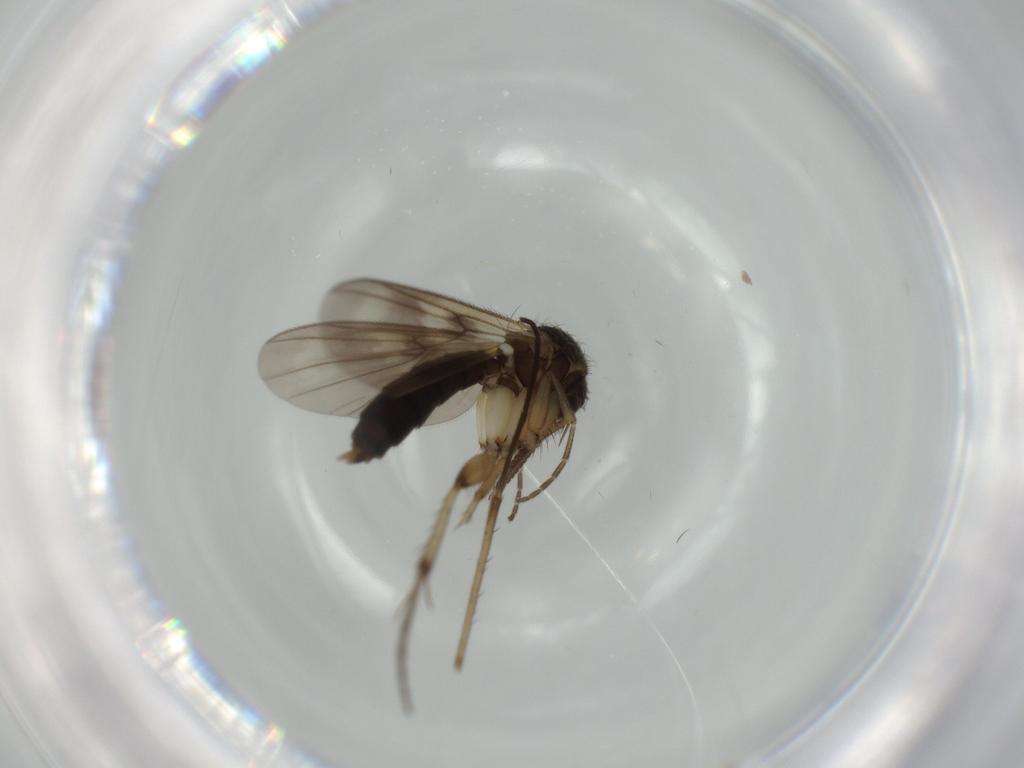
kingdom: Animalia
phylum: Arthropoda
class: Insecta
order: Diptera
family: Mycetophilidae
